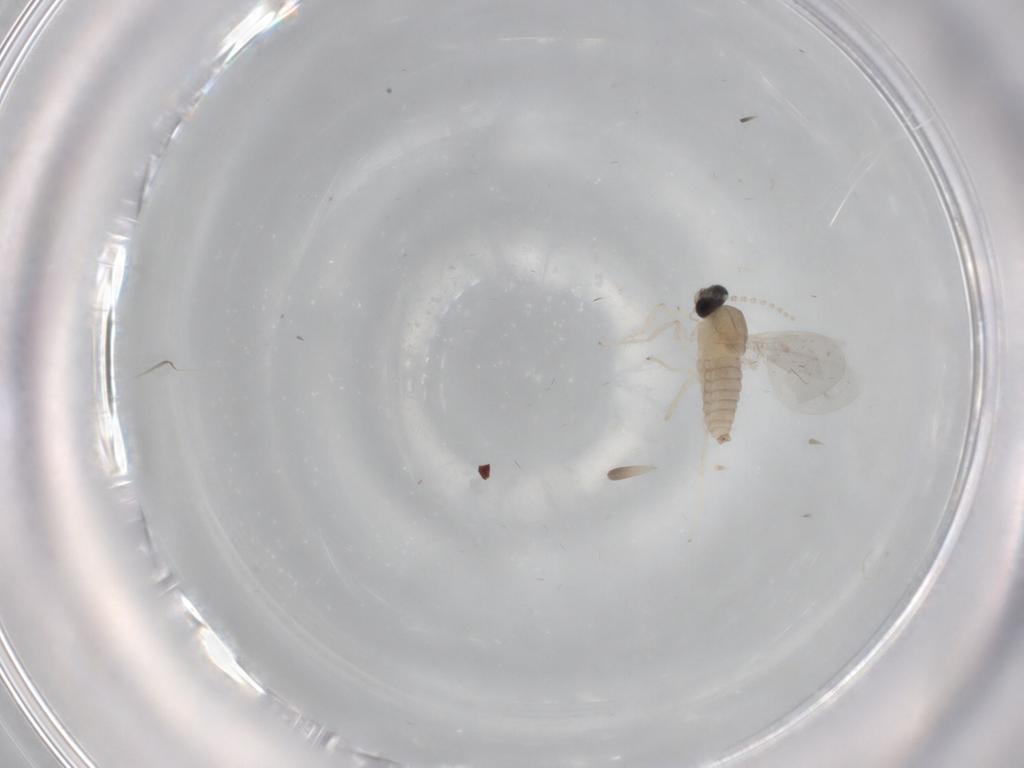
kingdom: Animalia
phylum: Arthropoda
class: Insecta
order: Diptera
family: Cecidomyiidae
